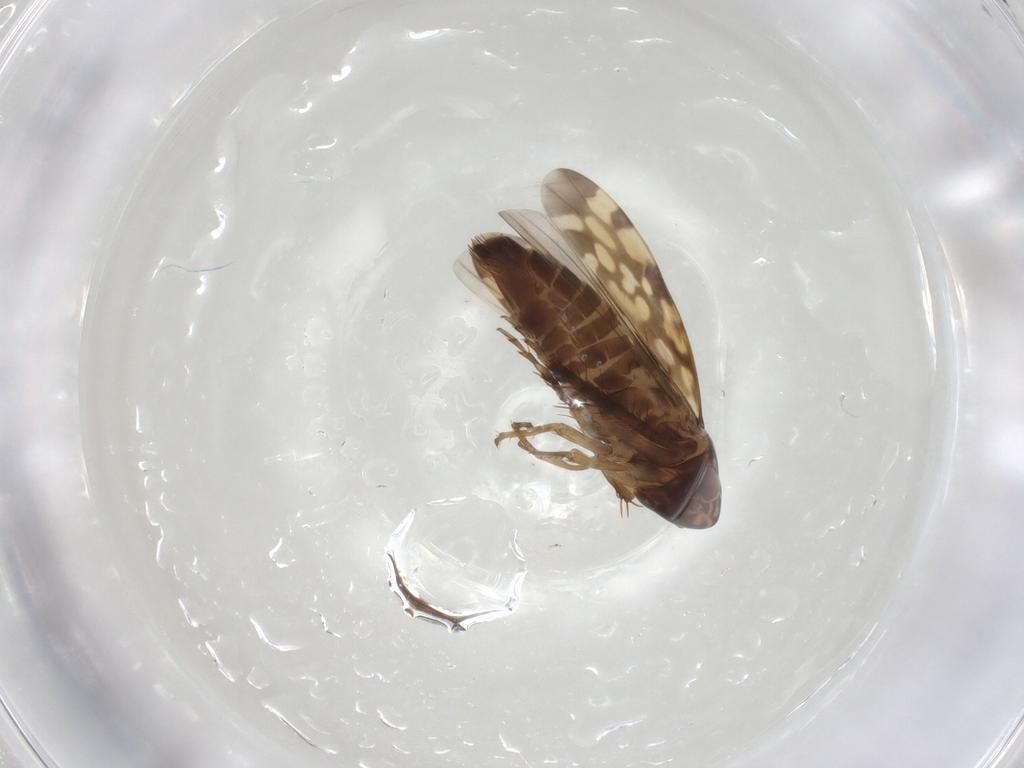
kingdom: Animalia
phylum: Arthropoda
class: Insecta
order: Hemiptera
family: Cicadellidae
